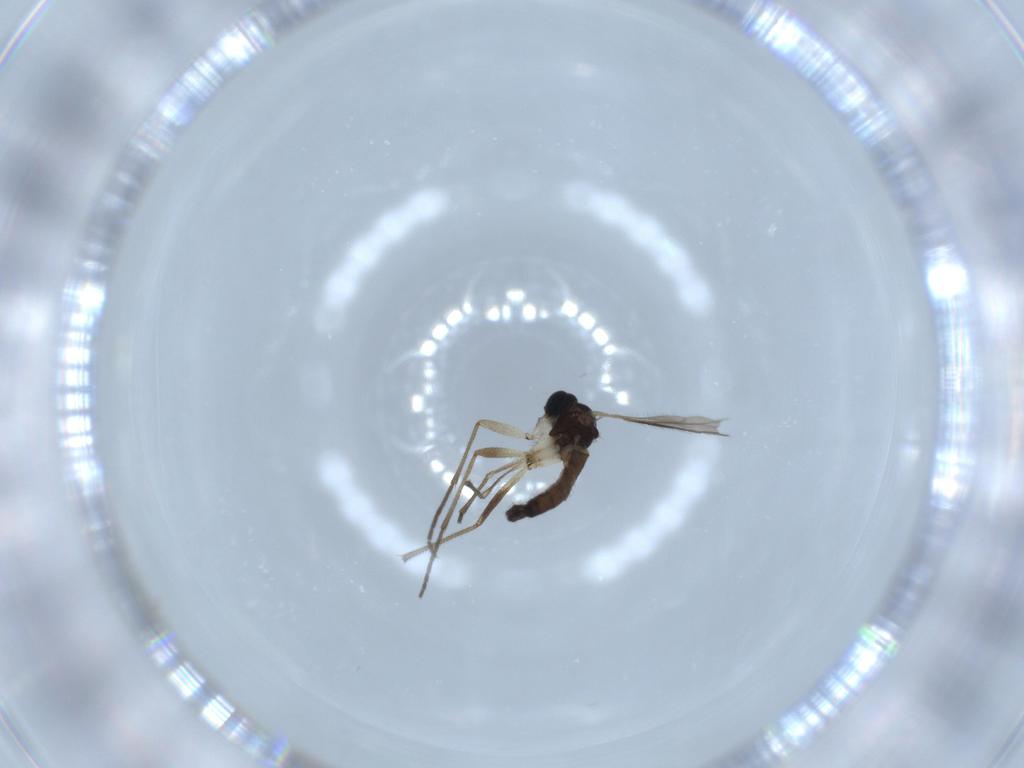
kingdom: Animalia
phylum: Arthropoda
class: Insecta
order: Diptera
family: Sciaridae
